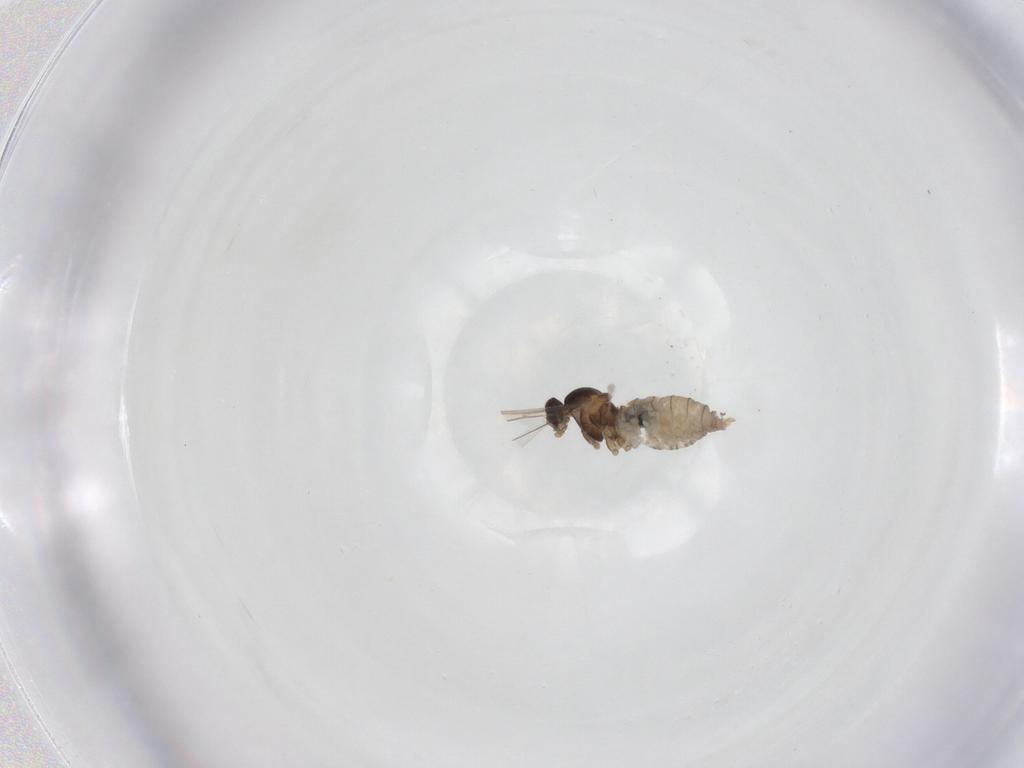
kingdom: Animalia
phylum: Arthropoda
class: Insecta
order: Diptera
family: Cecidomyiidae
